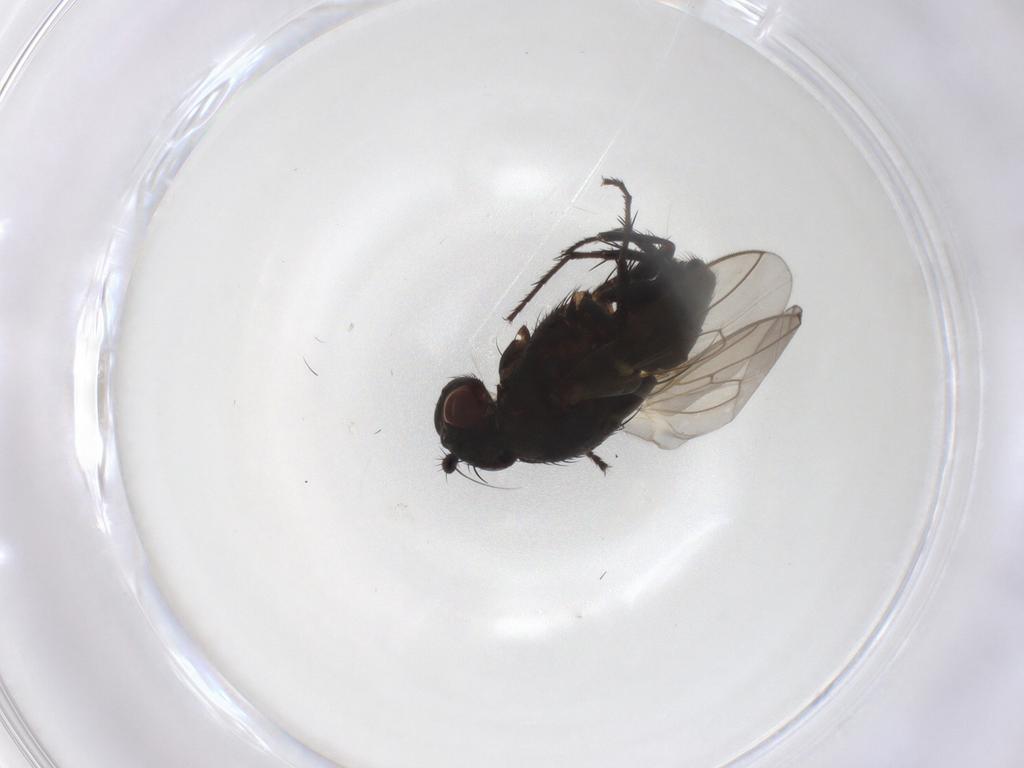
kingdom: Animalia
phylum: Arthropoda
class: Insecta
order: Diptera
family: Sphaeroceridae
